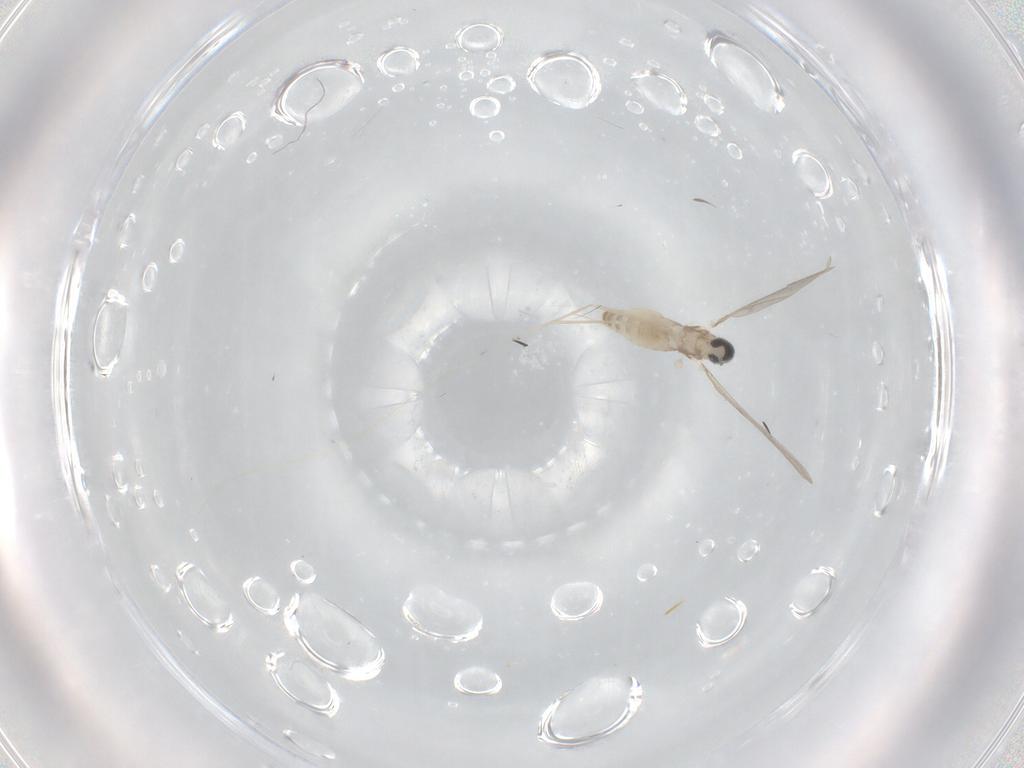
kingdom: Animalia
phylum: Arthropoda
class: Insecta
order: Diptera
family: Cecidomyiidae
